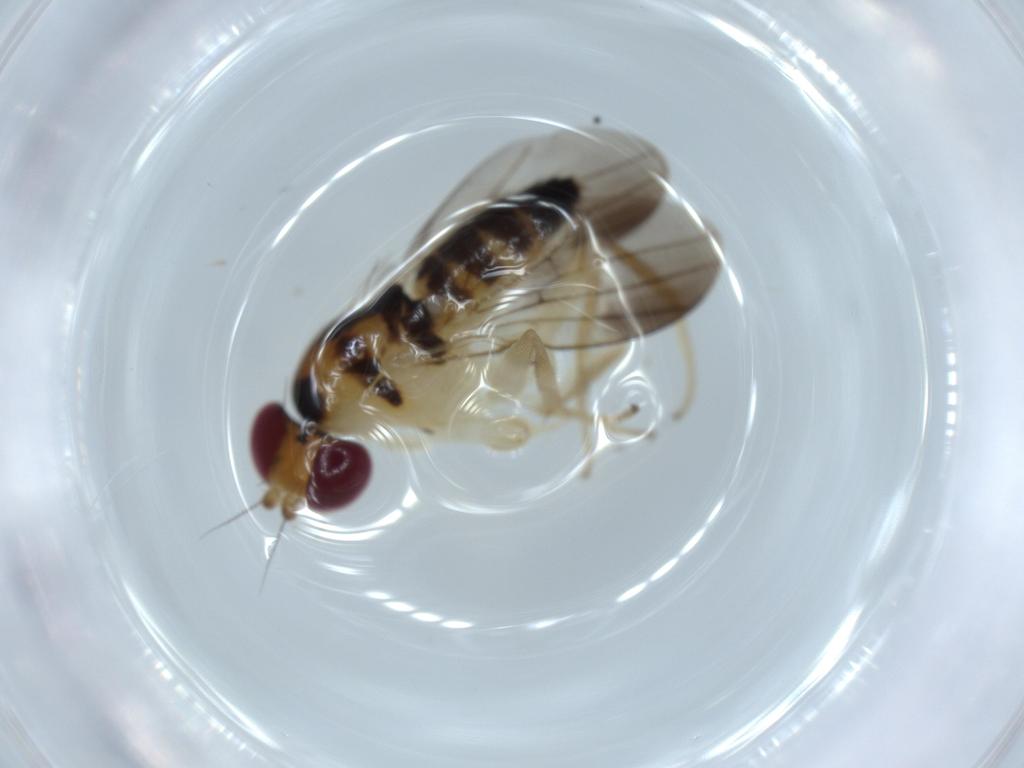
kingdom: Animalia
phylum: Arthropoda
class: Insecta
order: Diptera
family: Clusiidae
